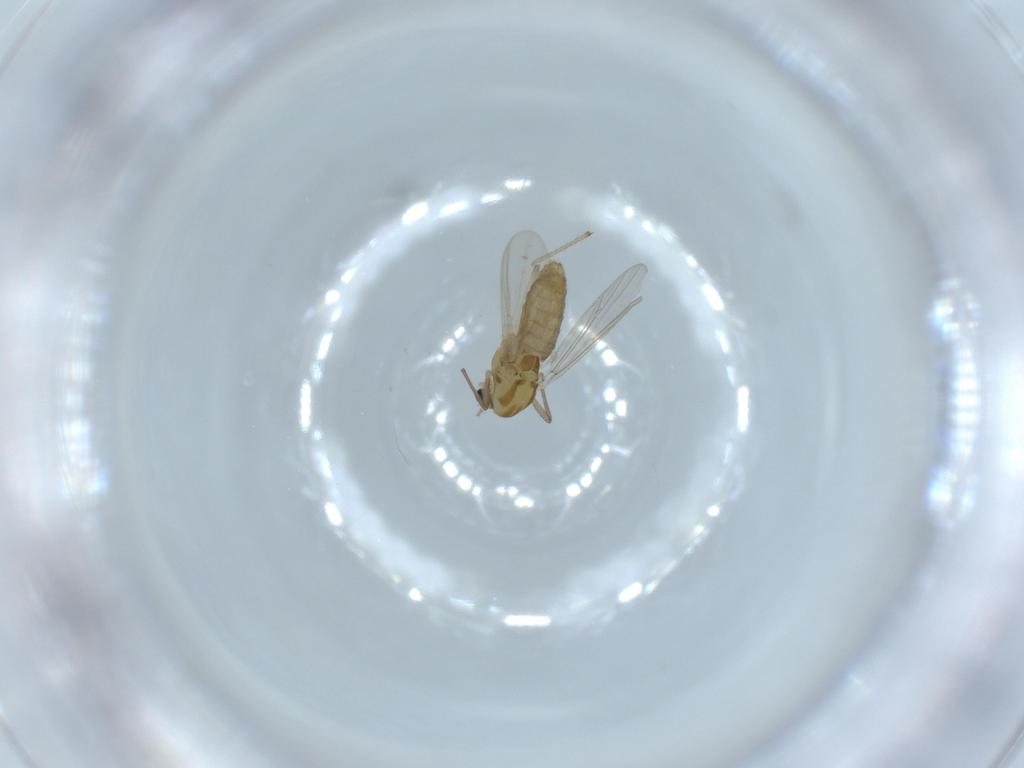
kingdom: Animalia
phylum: Arthropoda
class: Insecta
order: Diptera
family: Chironomidae
